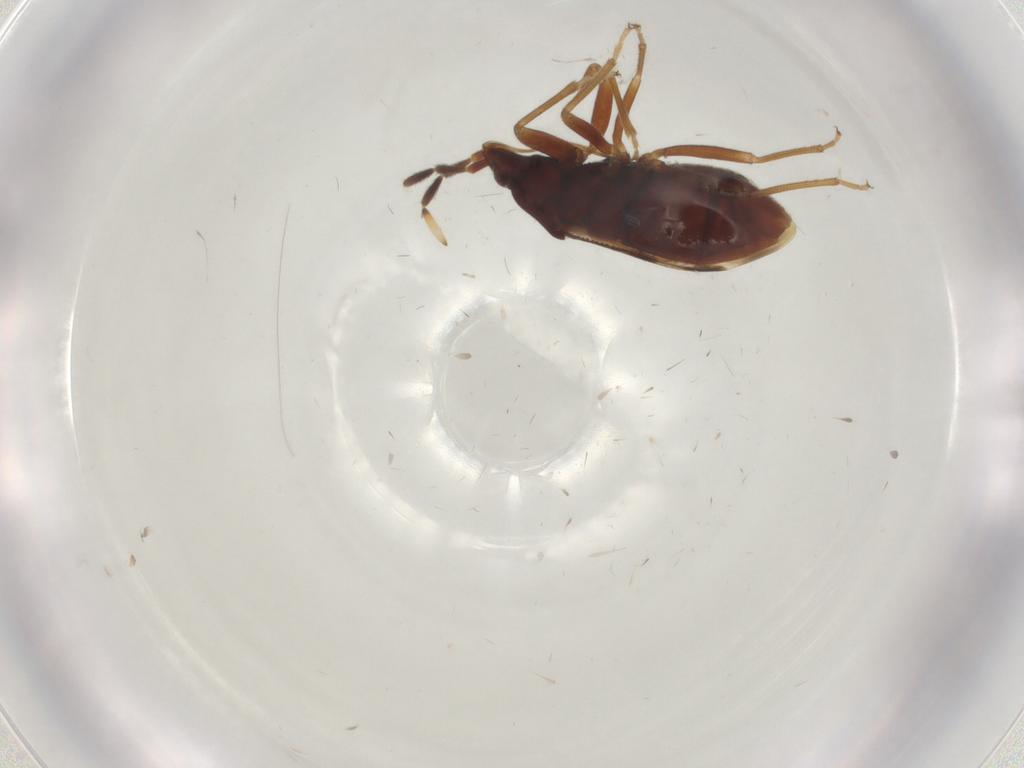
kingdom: Animalia
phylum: Arthropoda
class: Insecta
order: Hemiptera
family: Rhyparochromidae
